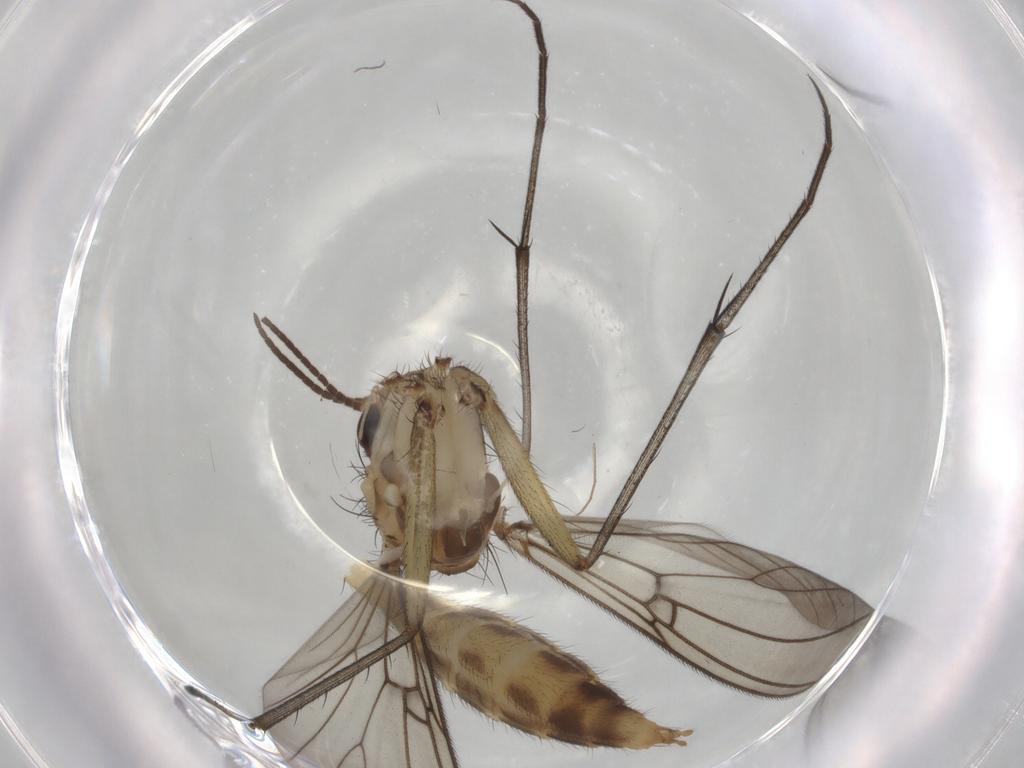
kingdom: Animalia
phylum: Arthropoda
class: Insecta
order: Diptera
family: Mycetophilidae
